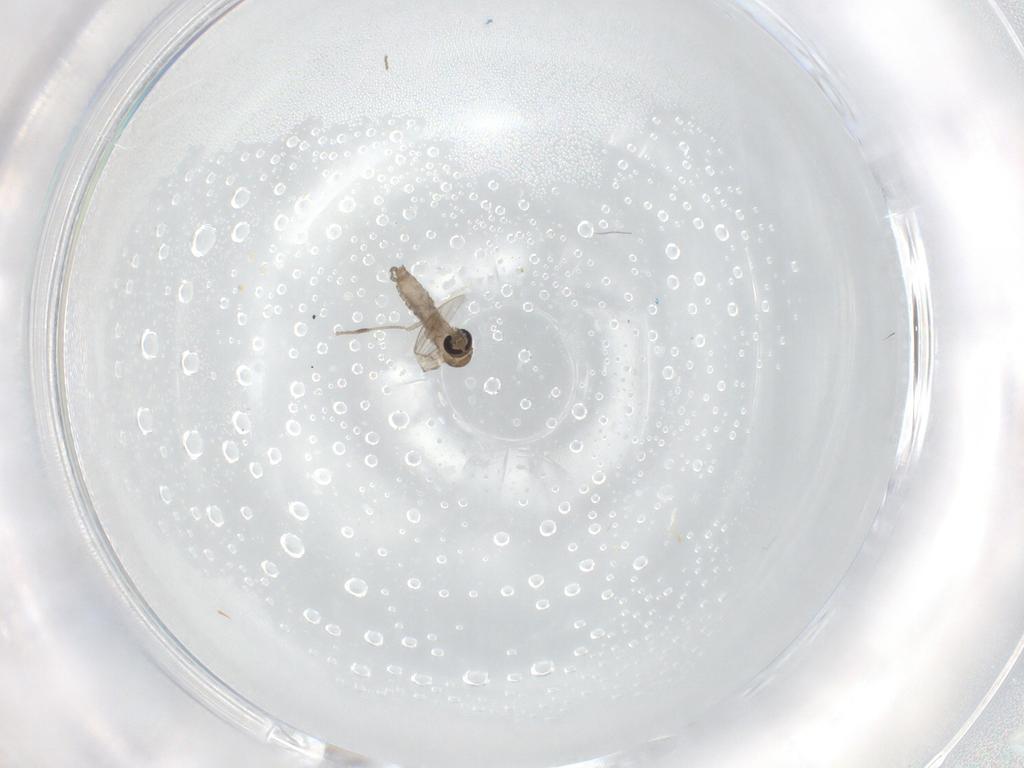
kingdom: Animalia
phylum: Arthropoda
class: Insecta
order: Diptera
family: Psychodidae
